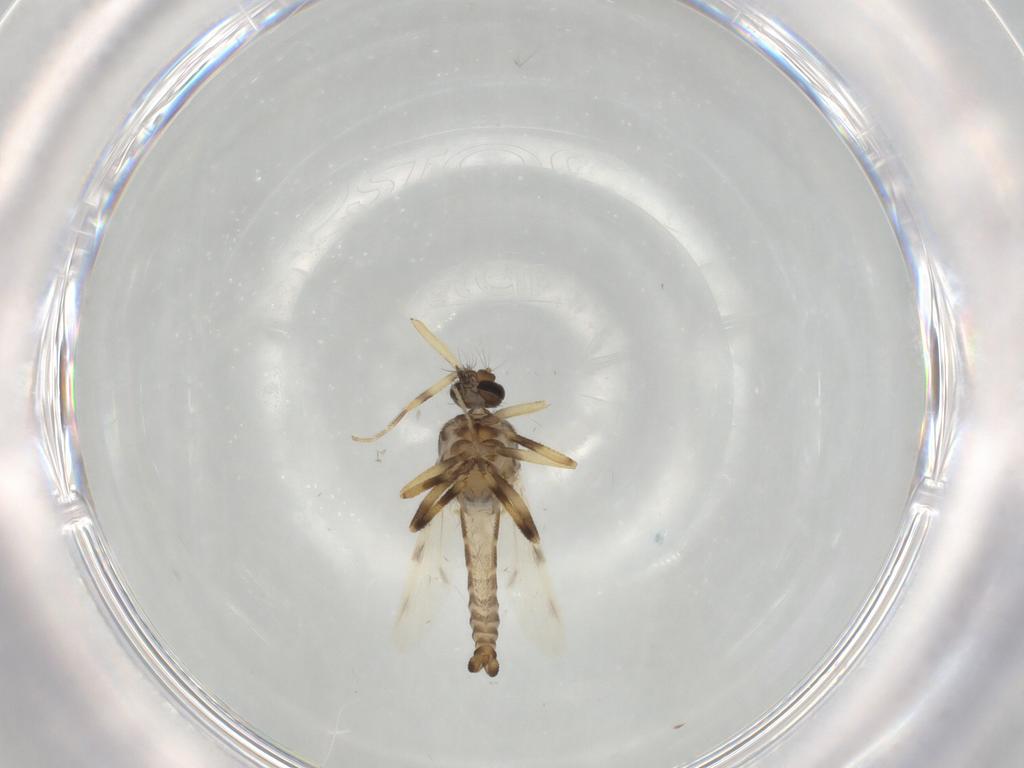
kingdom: Animalia
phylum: Arthropoda
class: Insecta
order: Diptera
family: Ceratopogonidae
